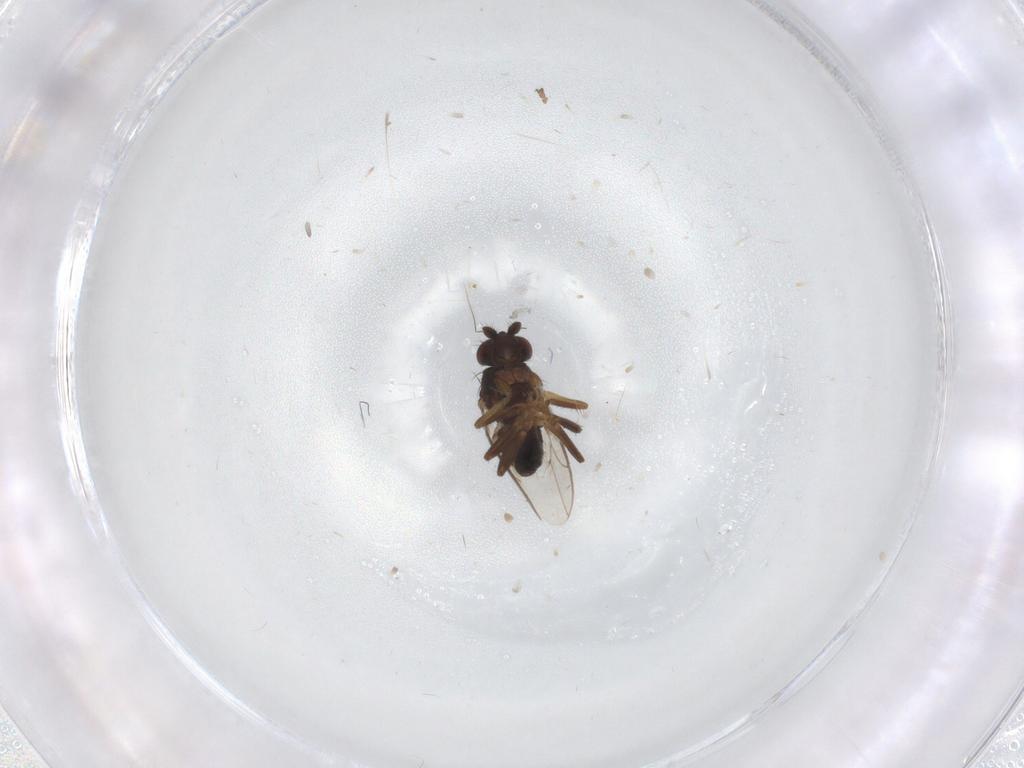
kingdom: Animalia
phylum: Arthropoda
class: Insecta
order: Diptera
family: Sphaeroceridae
